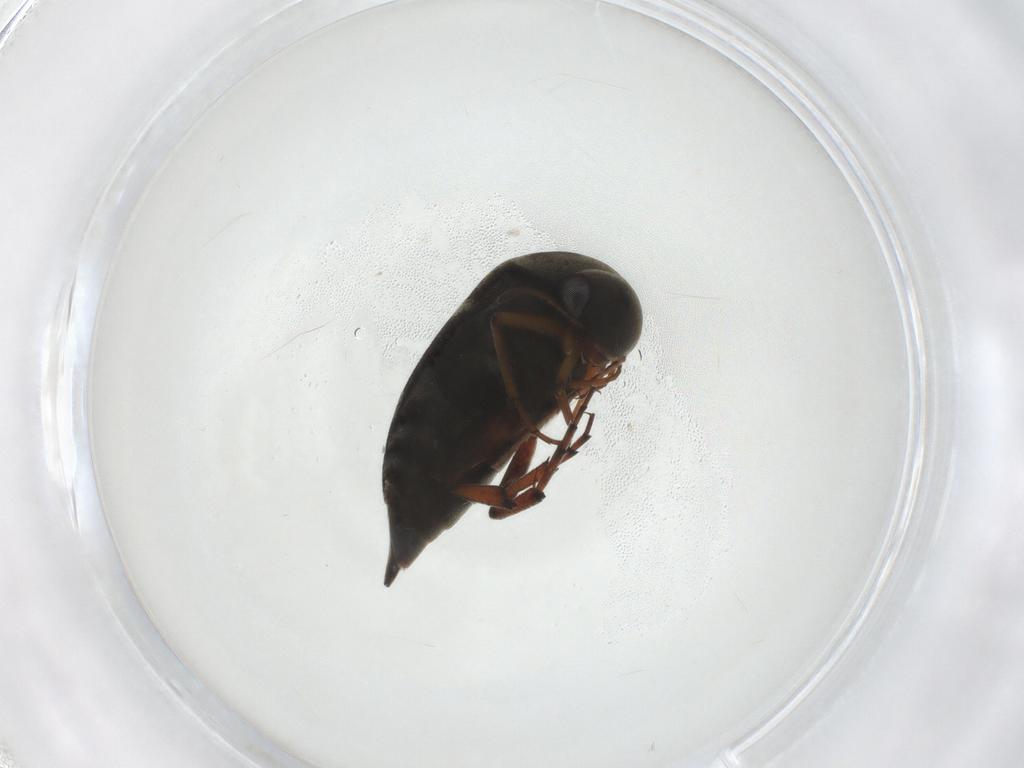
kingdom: Animalia
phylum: Arthropoda
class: Insecta
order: Coleoptera
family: Mordellidae
